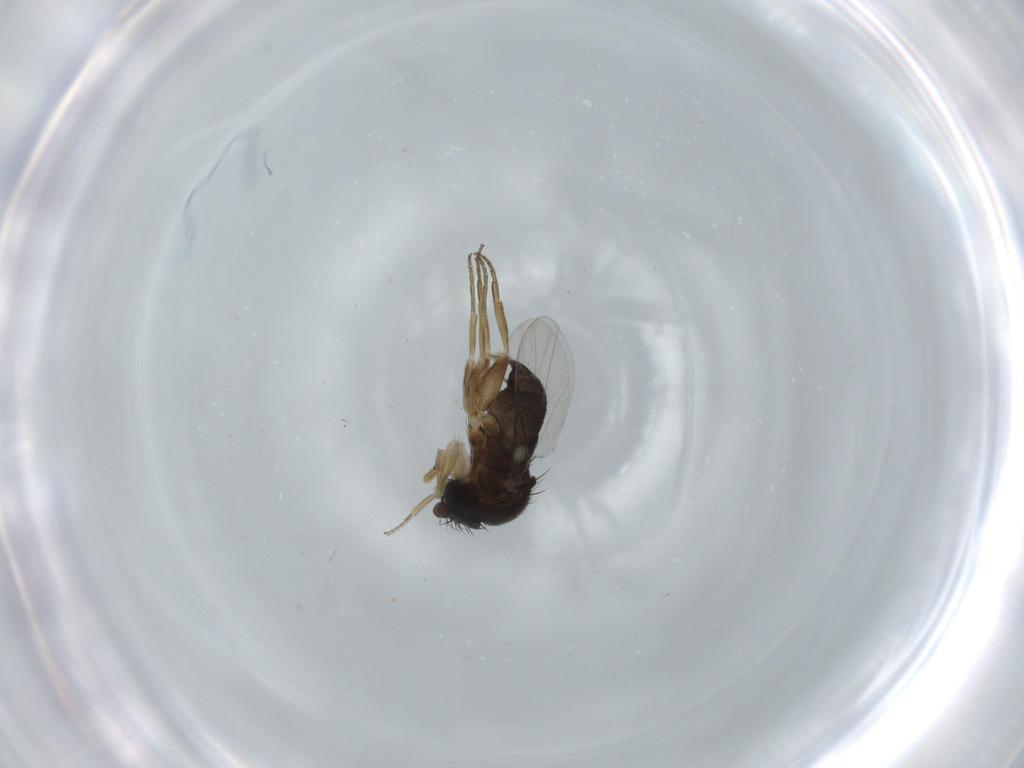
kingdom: Animalia
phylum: Arthropoda
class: Insecta
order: Diptera
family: Phoridae
